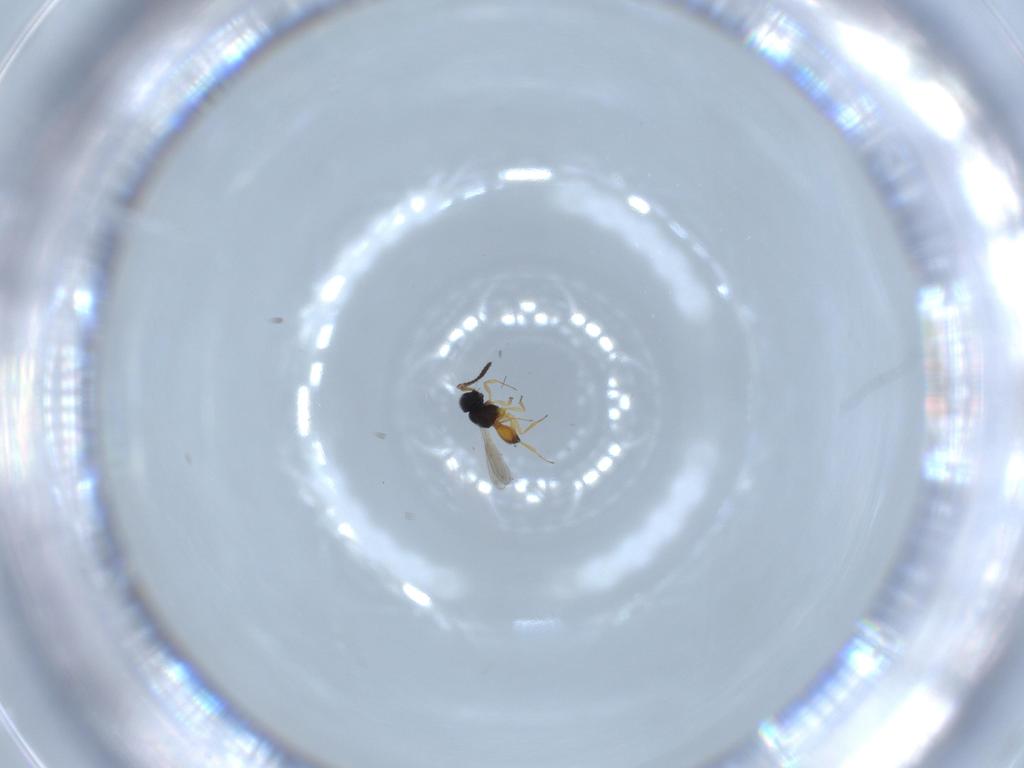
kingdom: Animalia
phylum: Arthropoda
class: Insecta
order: Hymenoptera
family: Scelionidae
